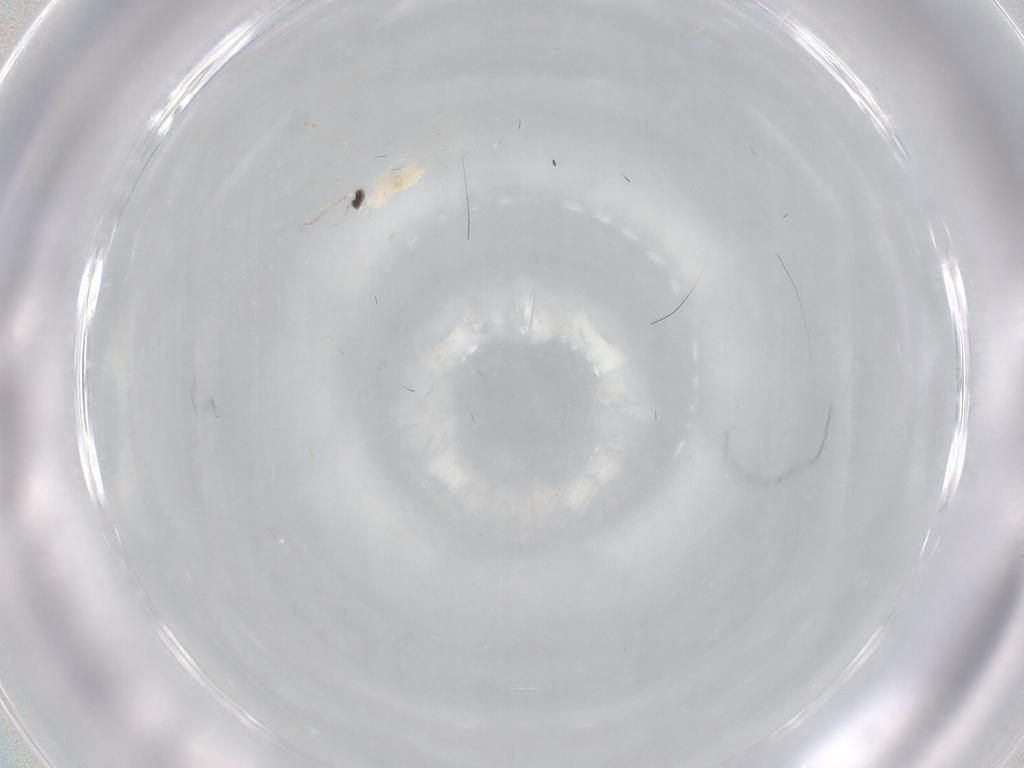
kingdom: Animalia
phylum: Arthropoda
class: Insecta
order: Diptera
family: Cecidomyiidae
